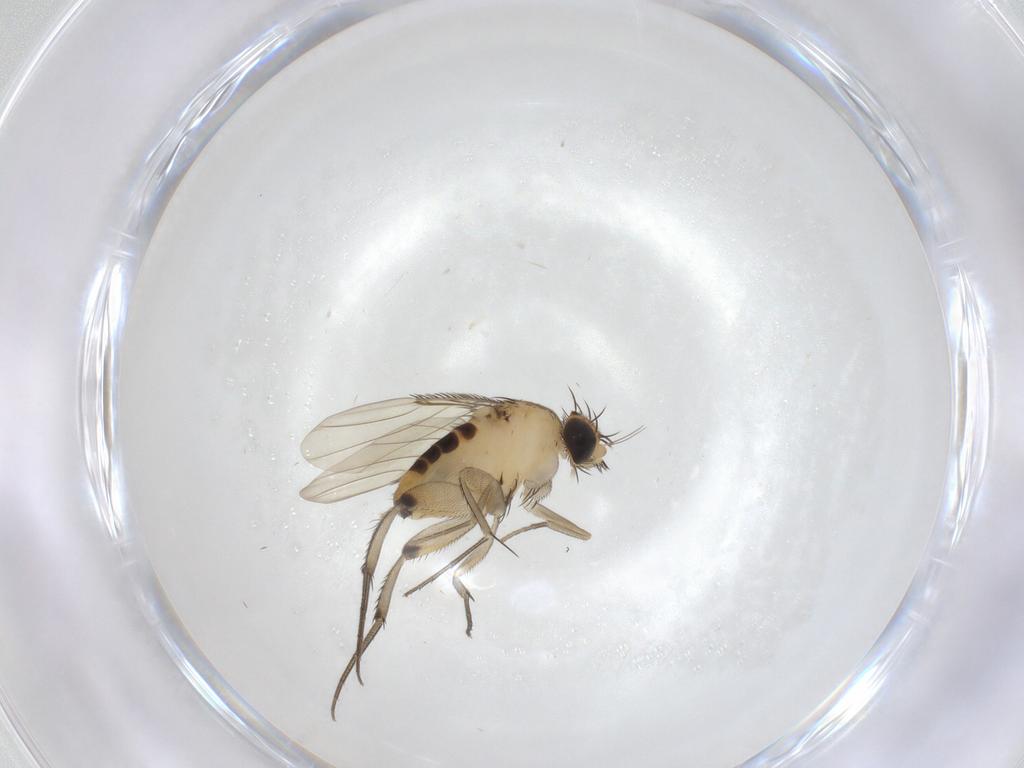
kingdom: Animalia
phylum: Arthropoda
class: Insecta
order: Diptera
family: Phoridae
